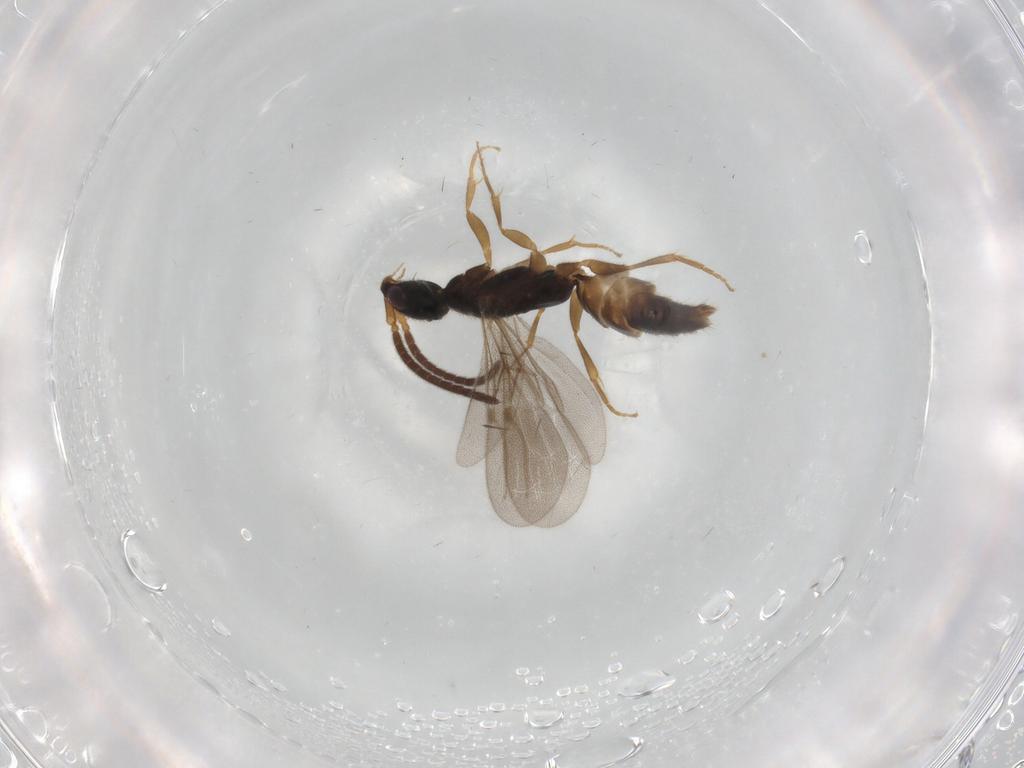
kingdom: Animalia
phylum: Arthropoda
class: Insecta
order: Hymenoptera
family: Bethylidae
